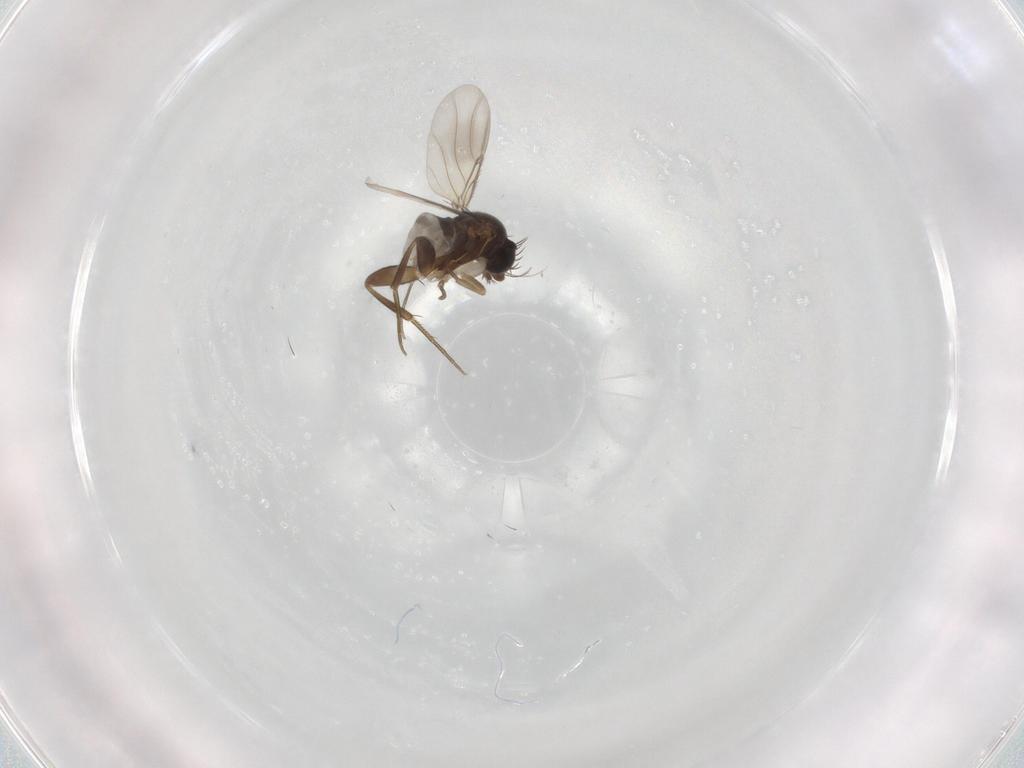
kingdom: Animalia
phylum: Arthropoda
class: Insecta
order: Diptera
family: Phoridae
